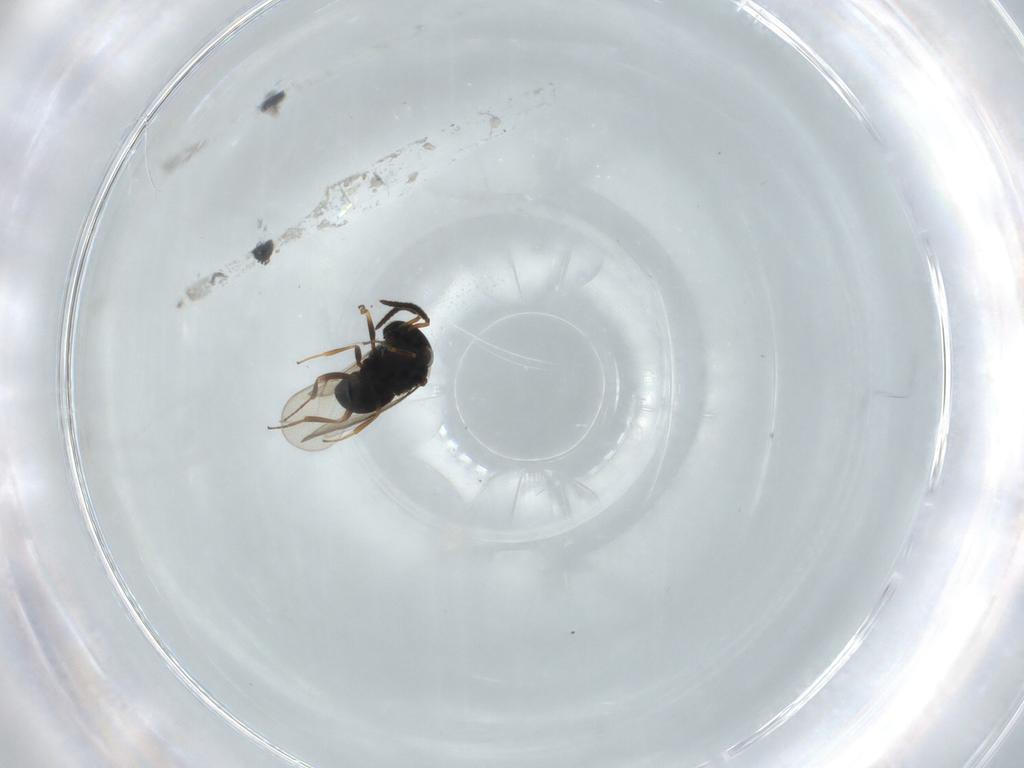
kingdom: Animalia
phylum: Arthropoda
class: Insecta
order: Hymenoptera
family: Scelionidae
